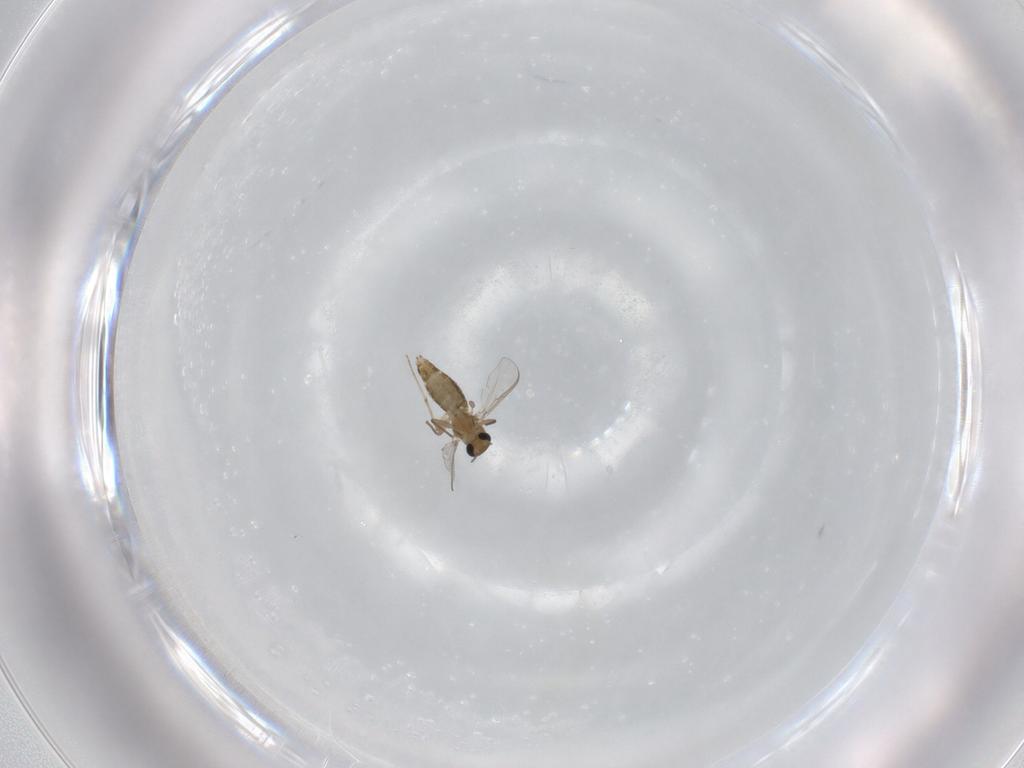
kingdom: Animalia
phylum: Arthropoda
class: Insecta
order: Diptera
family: Chironomidae
